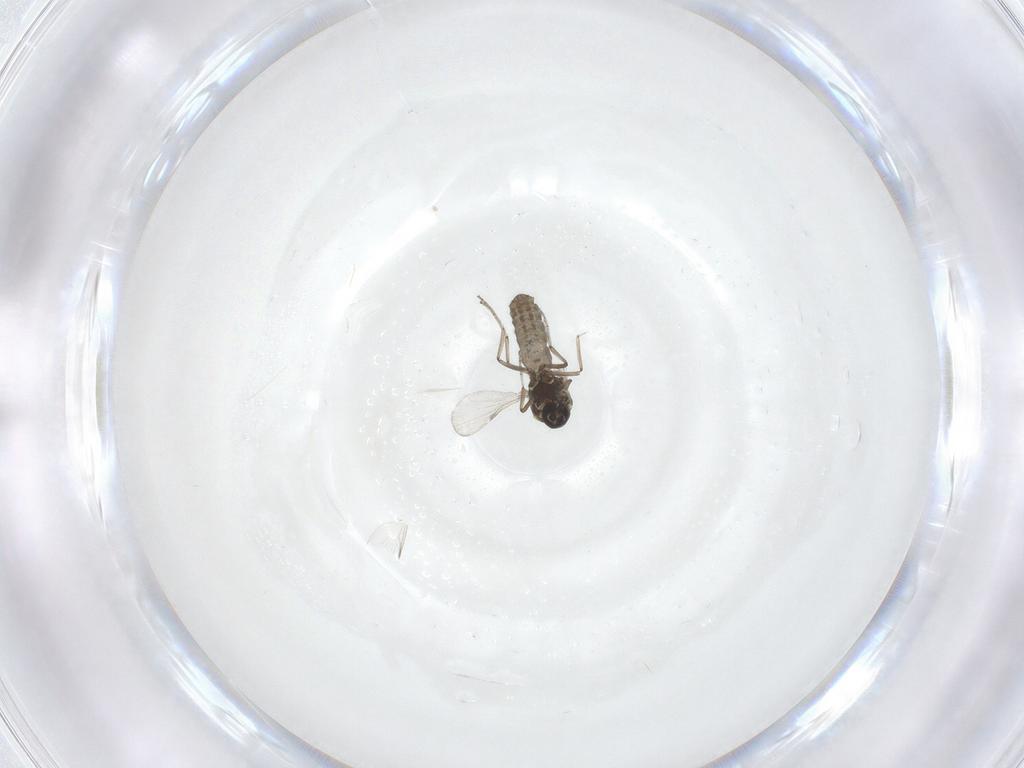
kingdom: Animalia
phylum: Arthropoda
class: Insecta
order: Diptera
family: Ceratopogonidae
